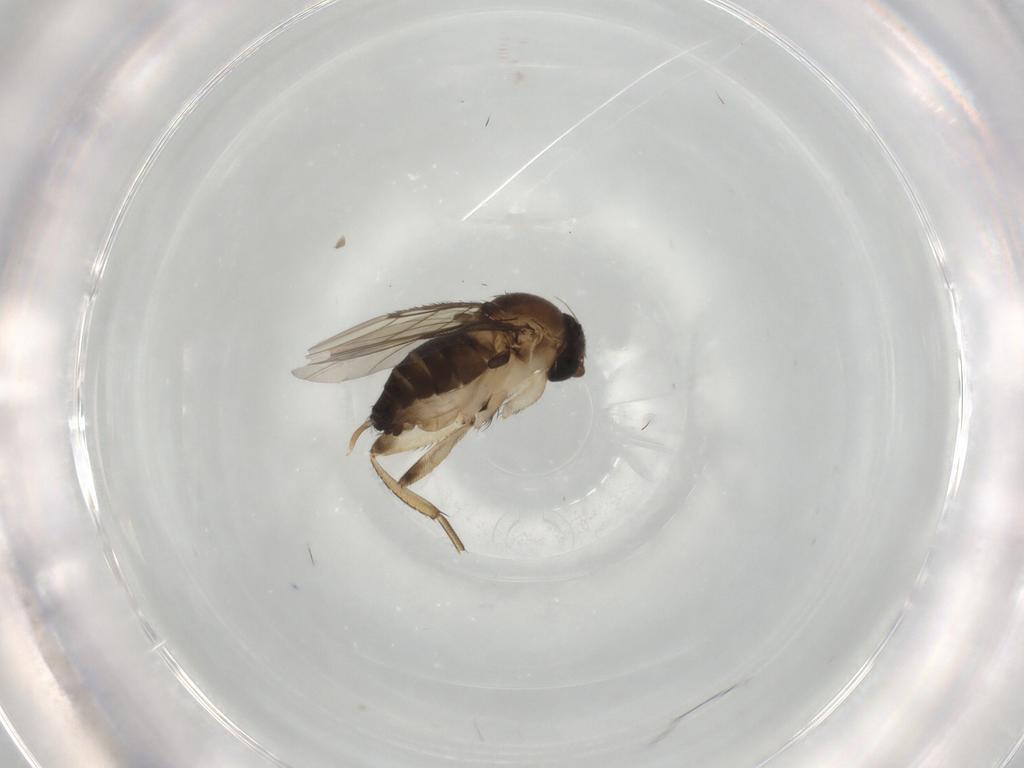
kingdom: Animalia
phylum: Arthropoda
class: Insecta
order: Diptera
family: Phoridae
